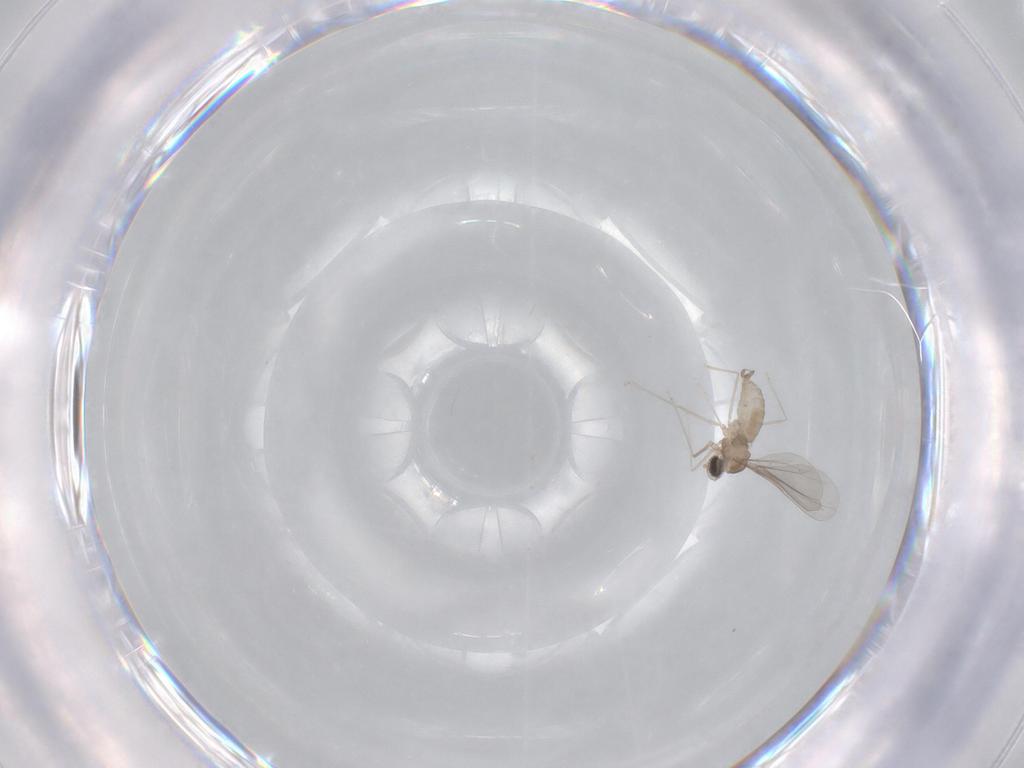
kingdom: Animalia
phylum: Arthropoda
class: Insecta
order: Diptera
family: Cecidomyiidae
